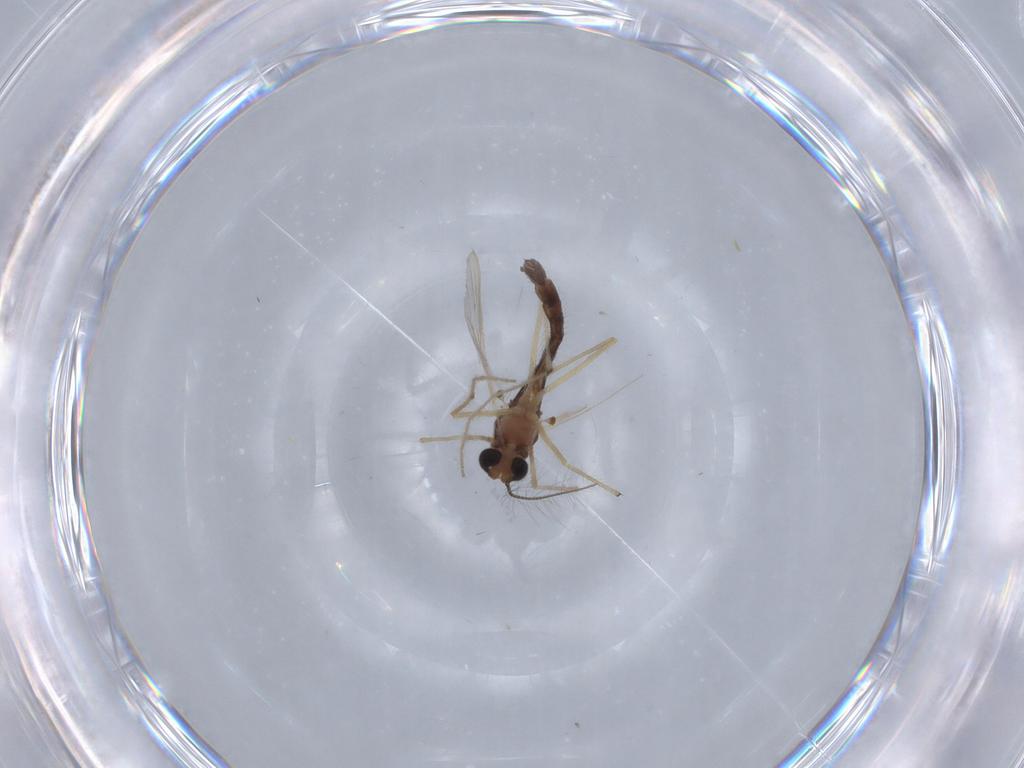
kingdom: Animalia
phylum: Arthropoda
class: Insecta
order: Diptera
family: Chironomidae
